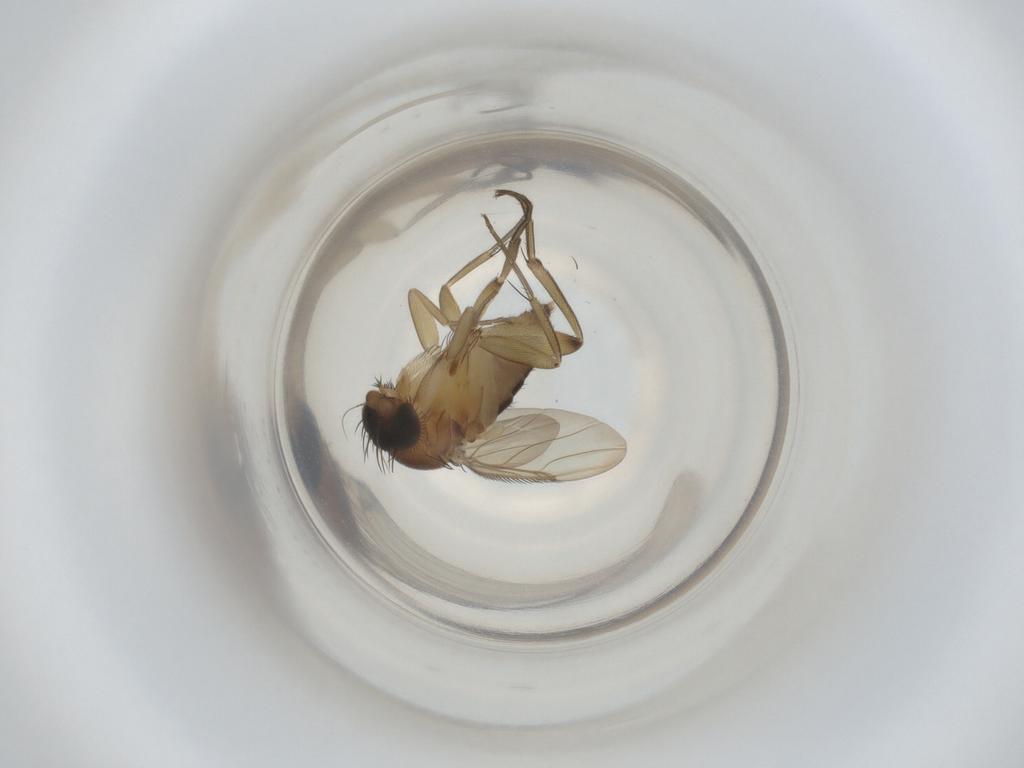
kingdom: Animalia
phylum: Arthropoda
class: Insecta
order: Diptera
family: Phoridae
